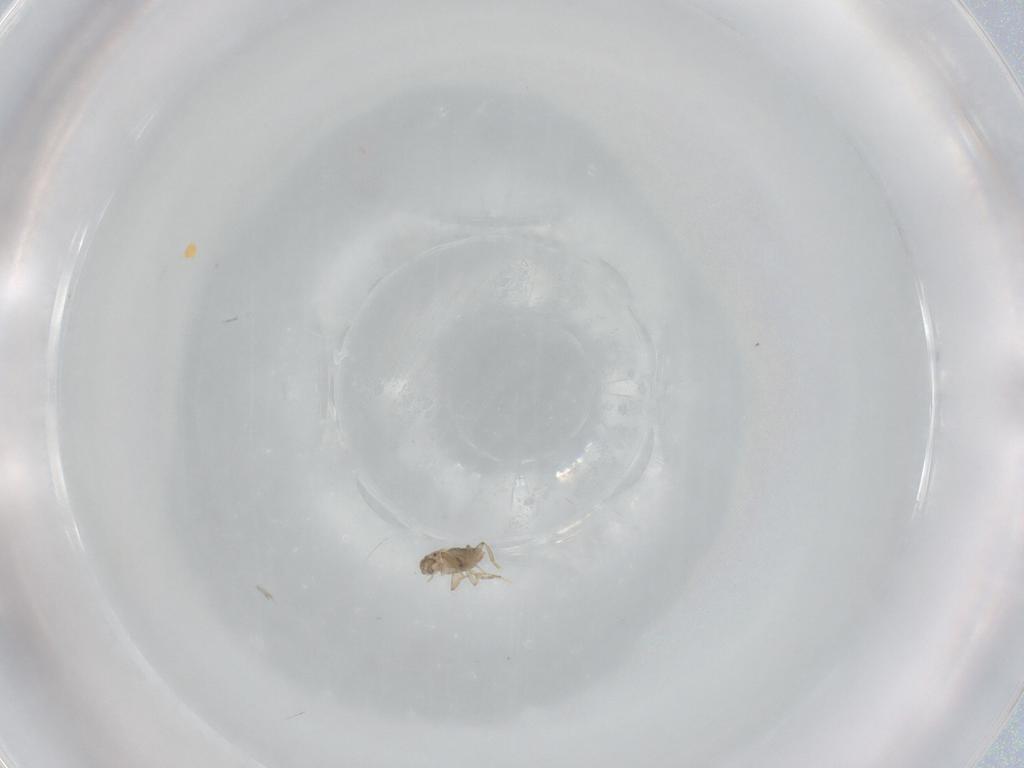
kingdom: Animalia
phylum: Arthropoda
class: Insecta
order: Diptera
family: Phoridae
